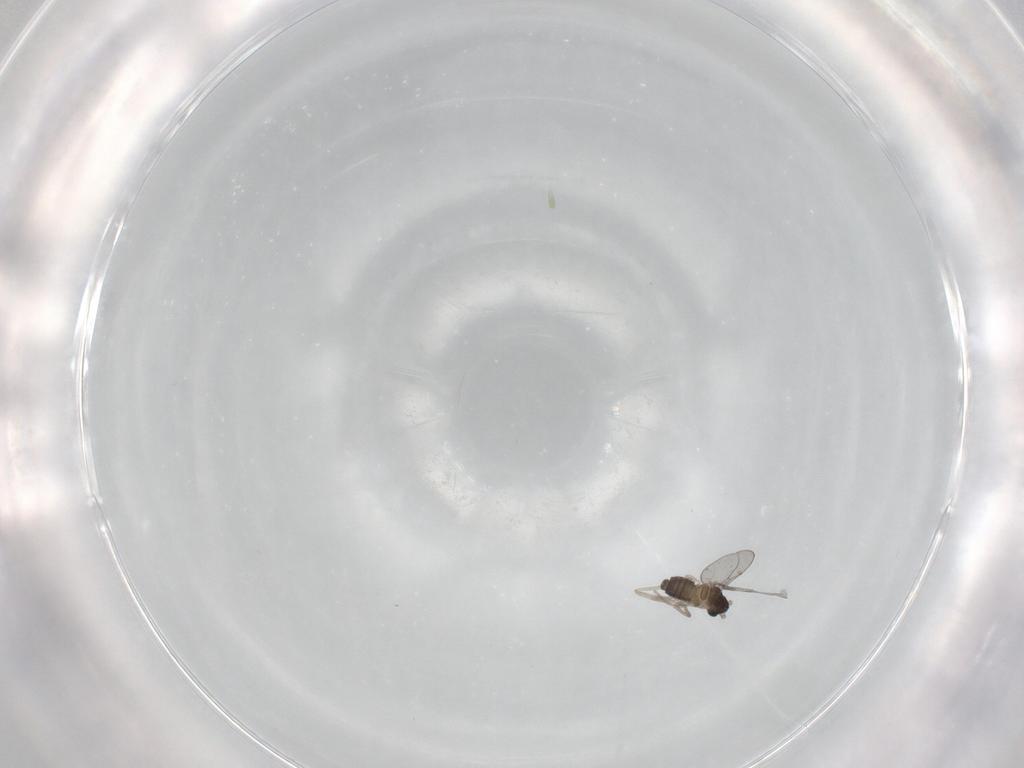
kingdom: Animalia
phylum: Arthropoda
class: Insecta
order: Diptera
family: Cecidomyiidae
